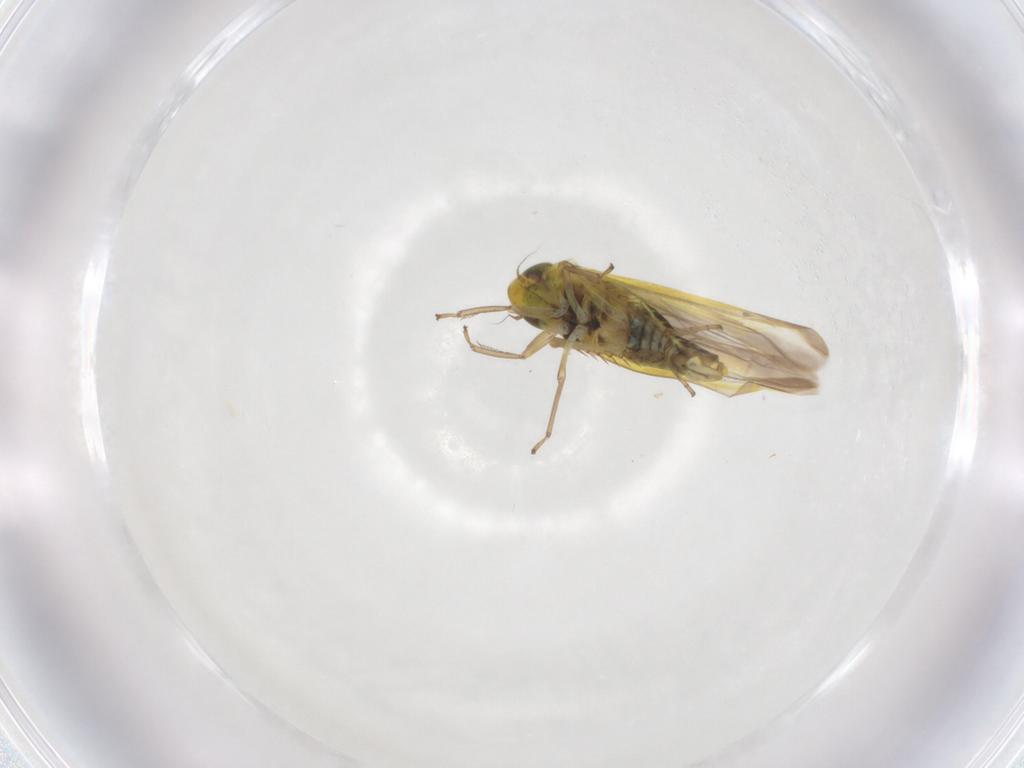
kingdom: Animalia
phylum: Arthropoda
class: Insecta
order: Hemiptera
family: Cicadellidae
